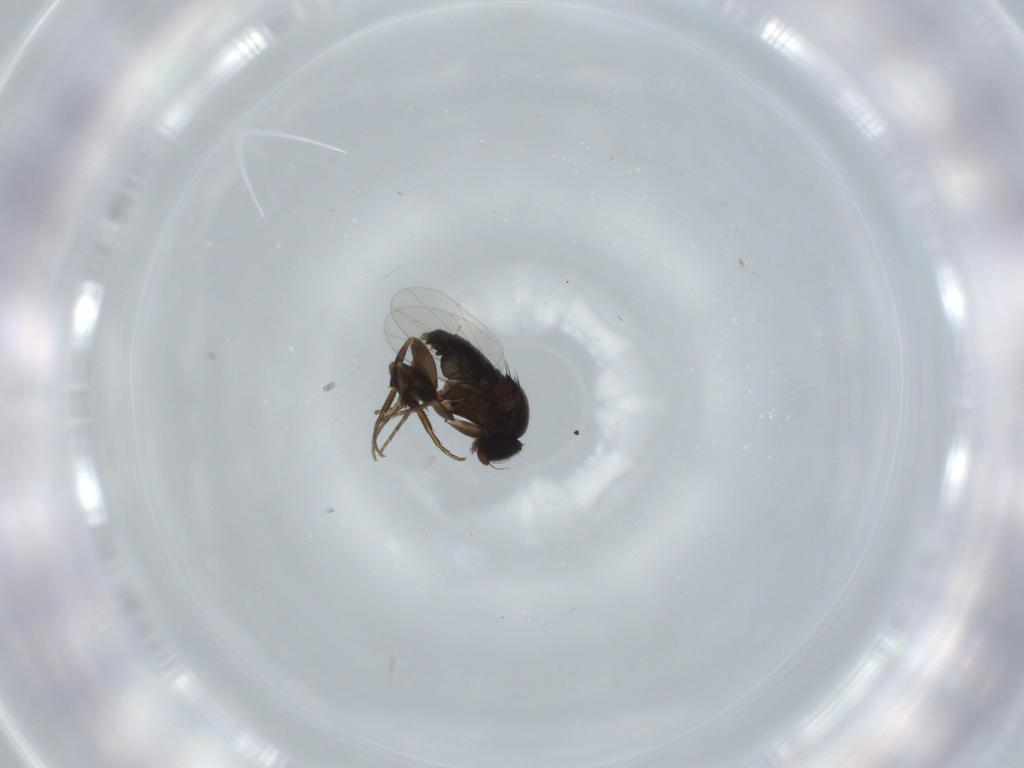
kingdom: Animalia
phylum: Arthropoda
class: Insecta
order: Diptera
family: Phoridae
